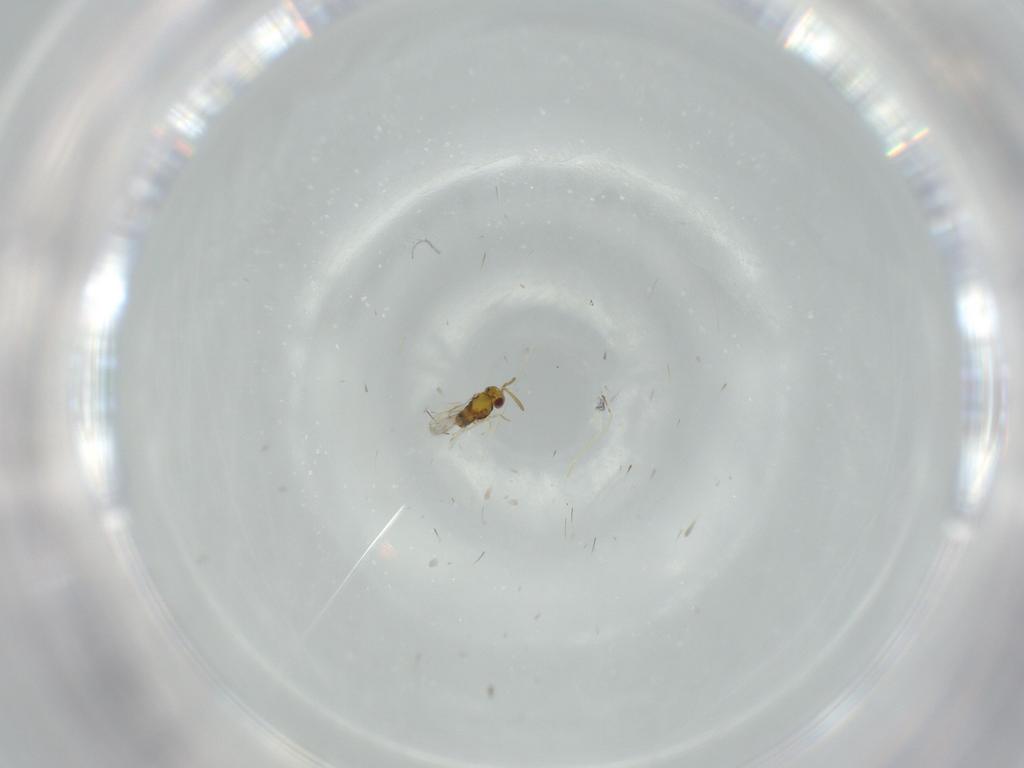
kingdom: Animalia
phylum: Arthropoda
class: Insecta
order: Hymenoptera
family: Aphelinidae
